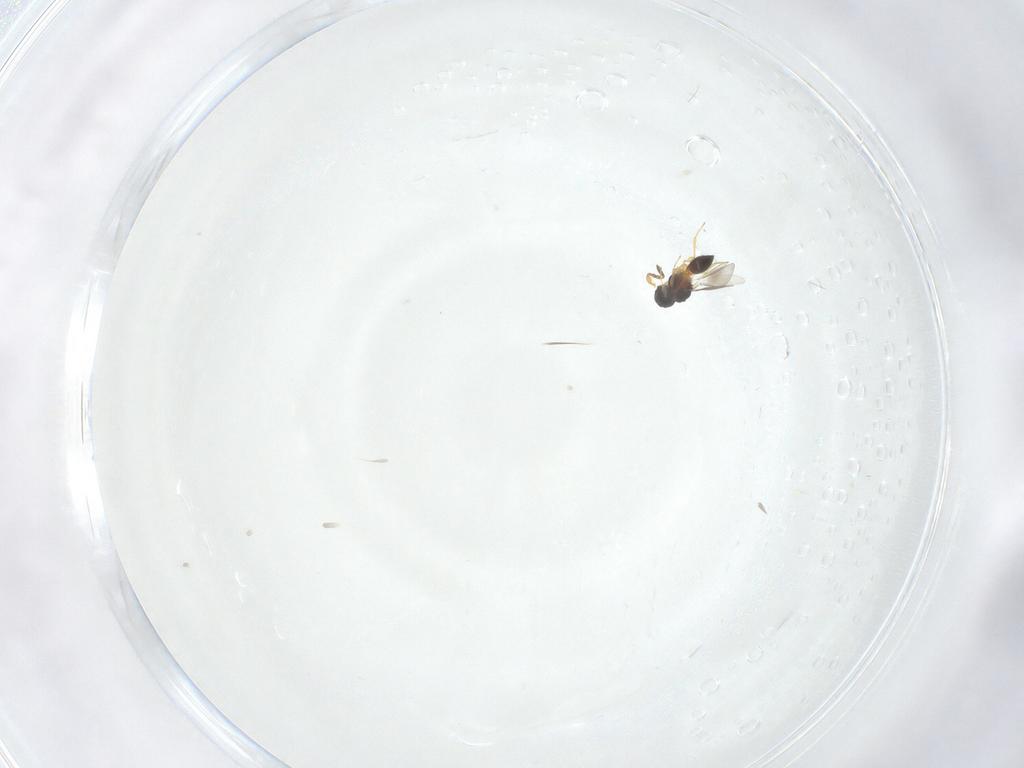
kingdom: Animalia
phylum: Arthropoda
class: Insecta
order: Hymenoptera
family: Platygastridae
